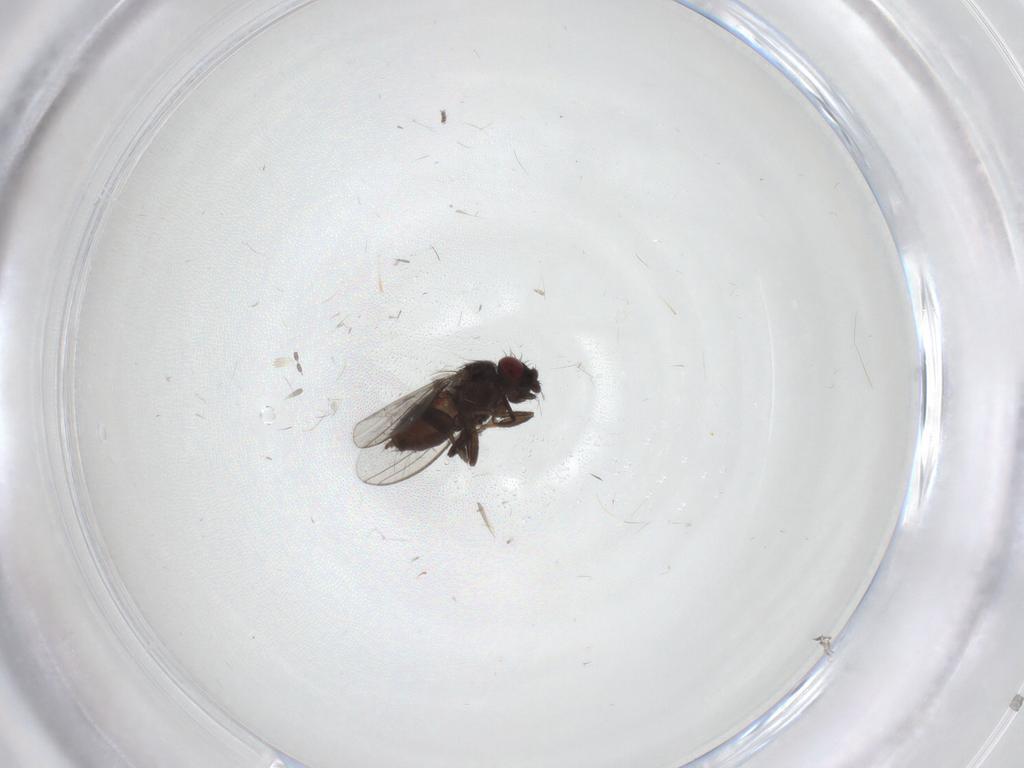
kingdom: Animalia
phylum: Arthropoda
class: Insecta
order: Diptera
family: Milichiidae
